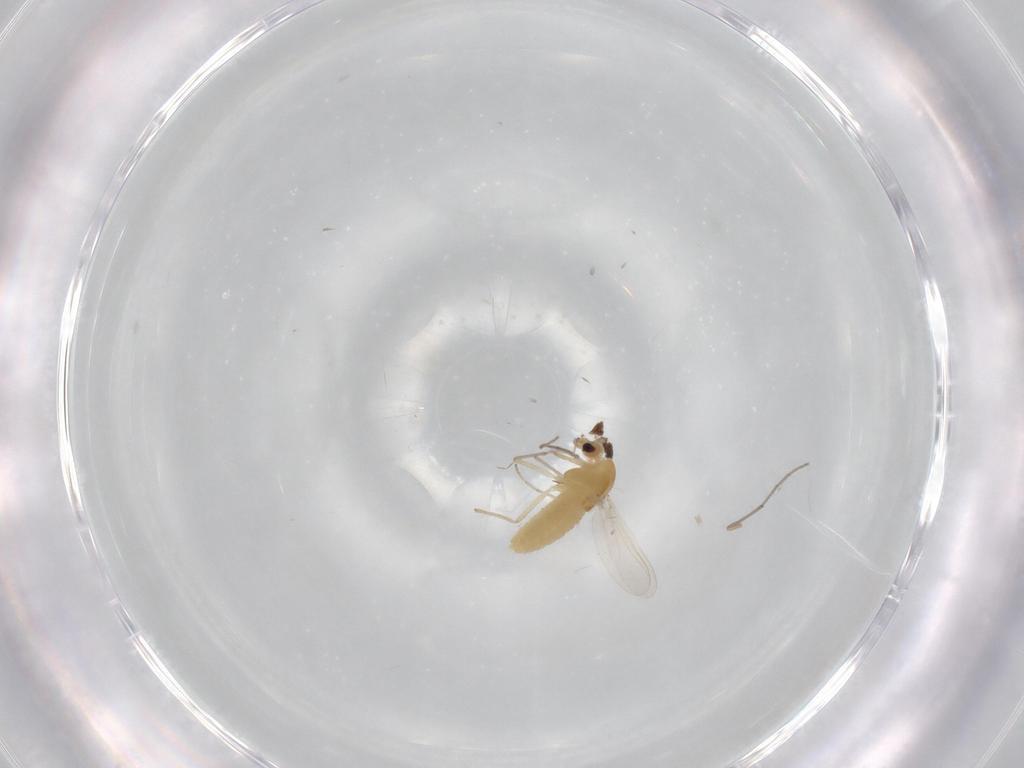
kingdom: Animalia
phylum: Arthropoda
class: Insecta
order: Diptera
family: Chironomidae
